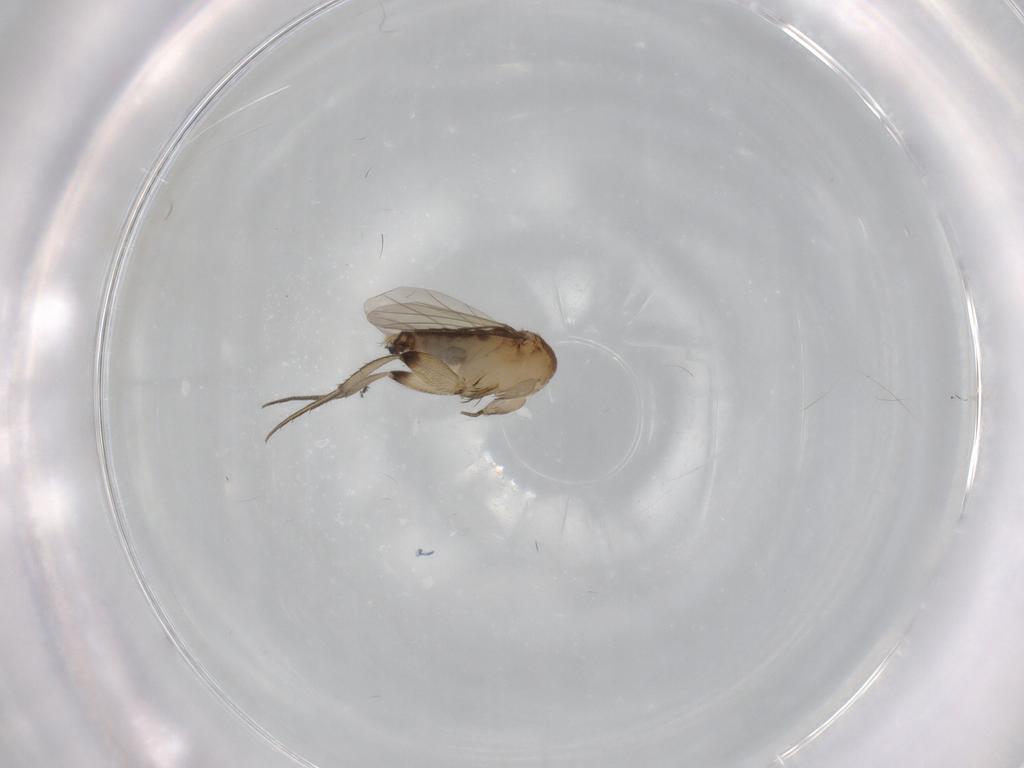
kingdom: Animalia
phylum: Arthropoda
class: Insecta
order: Diptera
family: Phoridae
